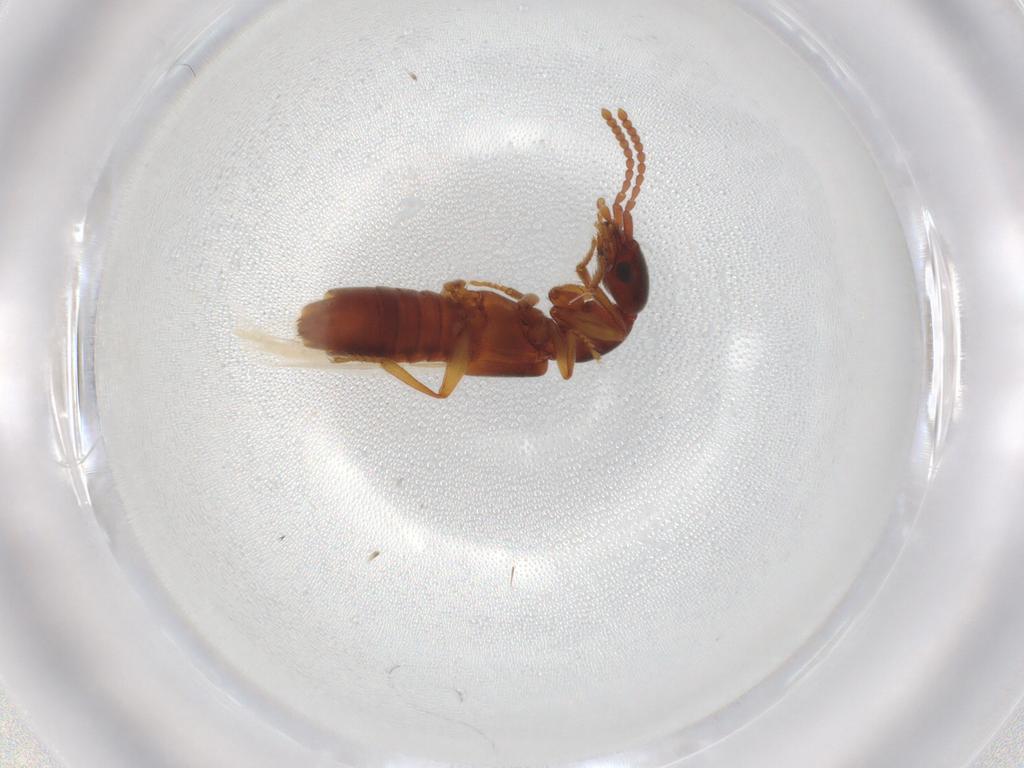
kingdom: Animalia
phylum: Arthropoda
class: Insecta
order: Coleoptera
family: Staphylinidae
